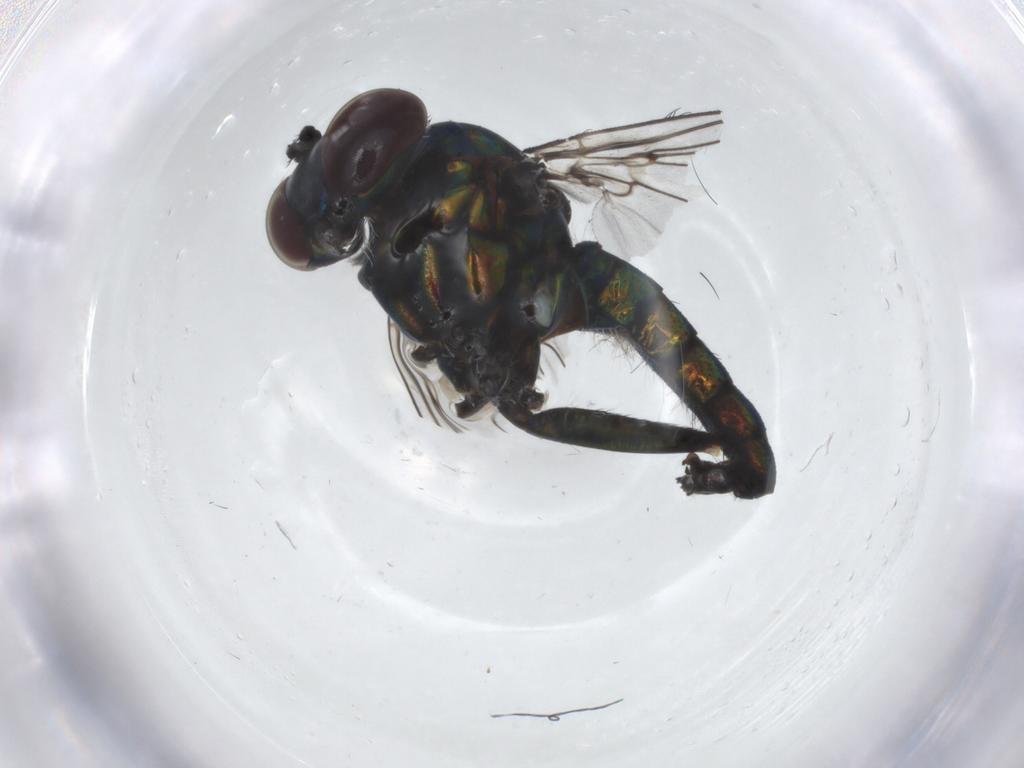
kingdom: Animalia
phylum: Arthropoda
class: Insecta
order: Diptera
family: Dolichopodidae
